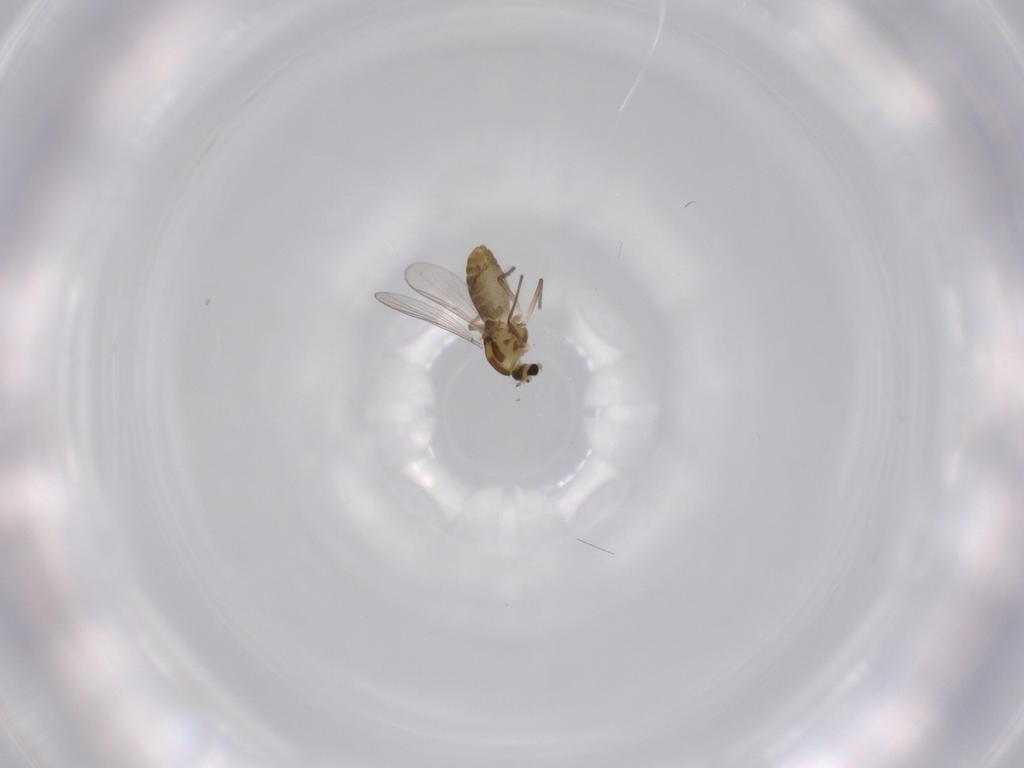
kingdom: Animalia
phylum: Arthropoda
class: Insecta
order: Diptera
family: Chironomidae
